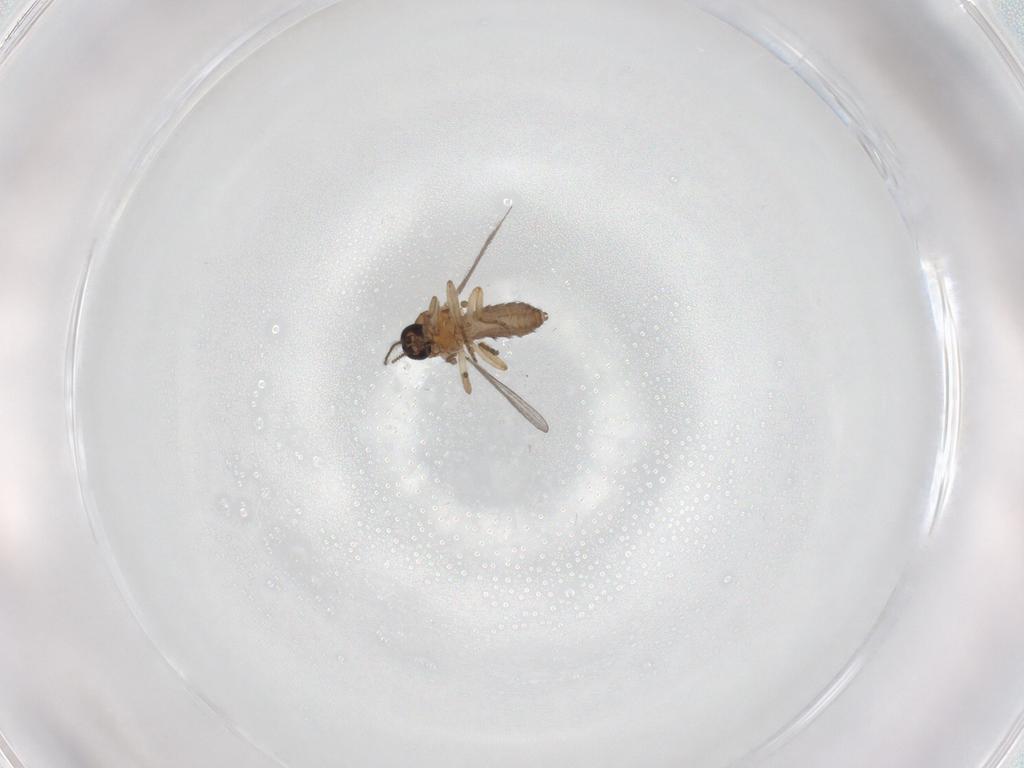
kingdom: Animalia
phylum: Arthropoda
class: Insecta
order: Diptera
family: Ceratopogonidae
